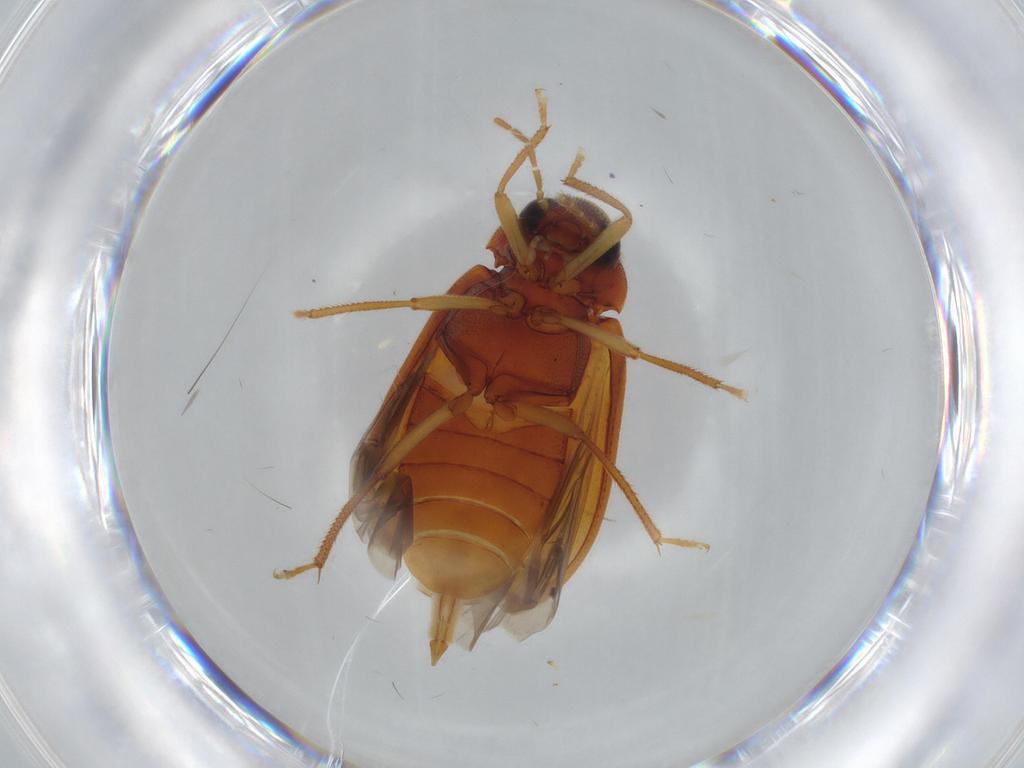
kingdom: Animalia
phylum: Arthropoda
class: Insecta
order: Coleoptera
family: Ptilodactylidae
